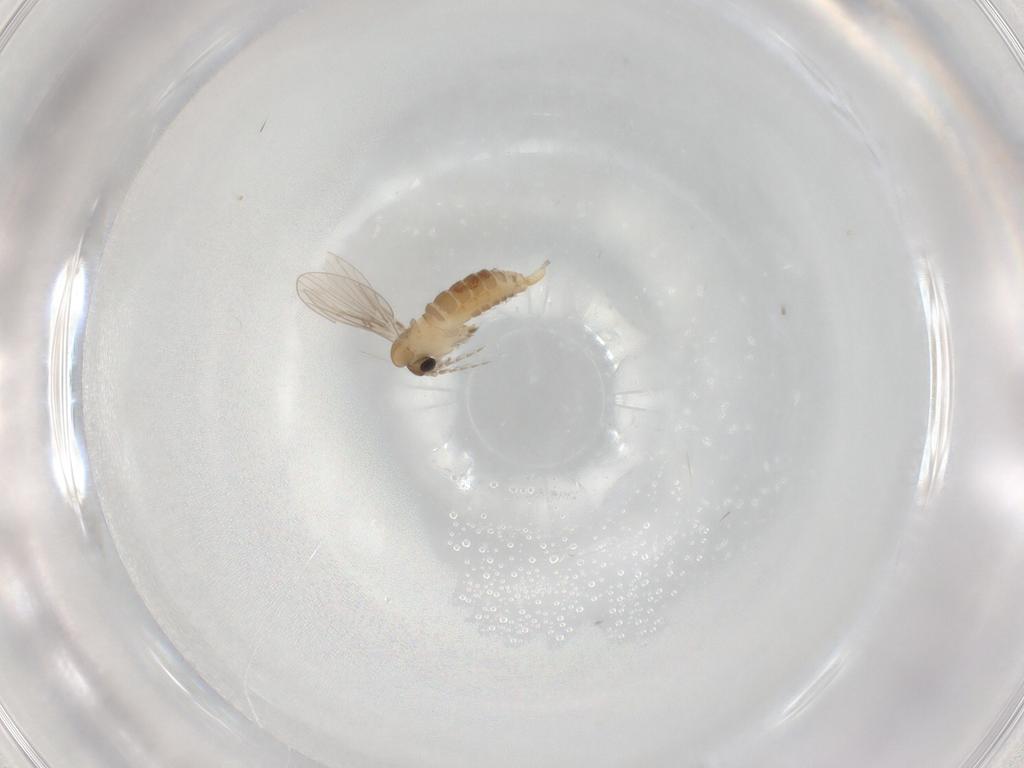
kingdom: Animalia
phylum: Arthropoda
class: Insecta
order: Diptera
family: Psychodidae
